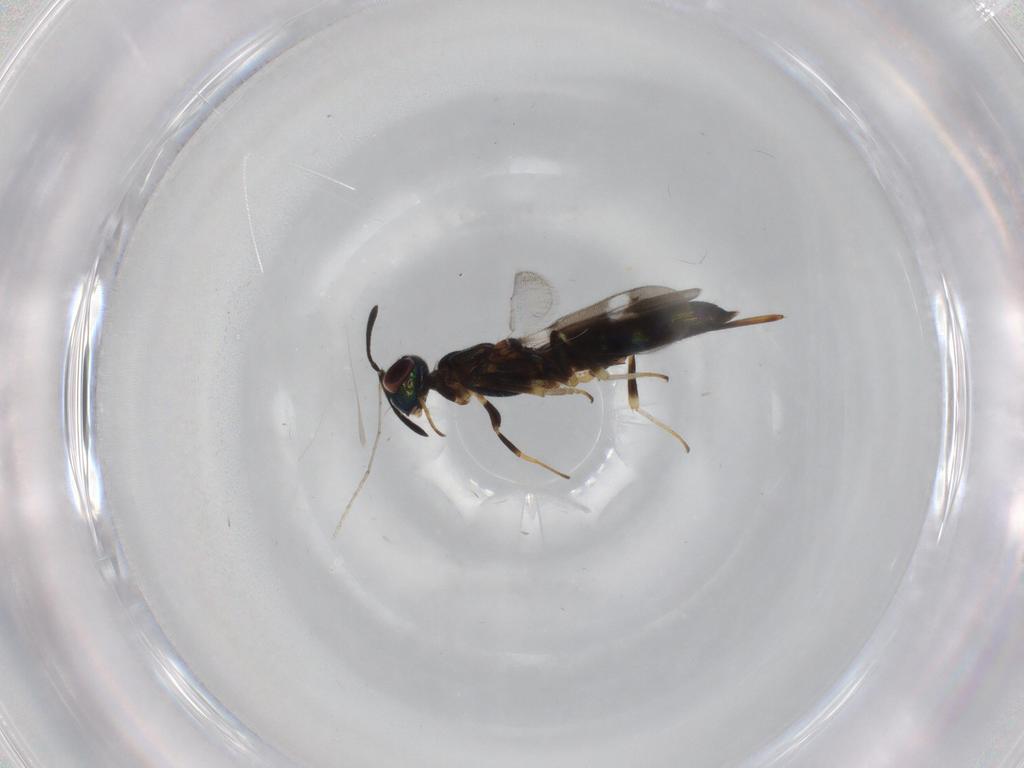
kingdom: Animalia
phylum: Arthropoda
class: Insecta
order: Hymenoptera
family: Eupelmidae
